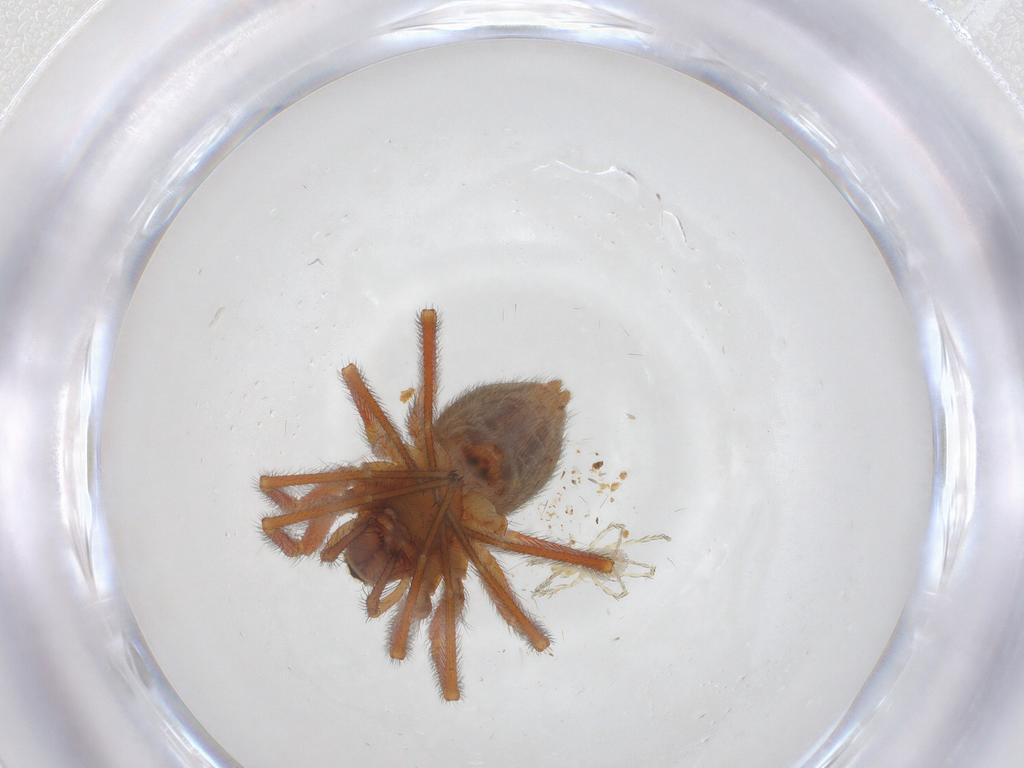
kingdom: Animalia
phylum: Arthropoda
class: Arachnida
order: Araneae
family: Linyphiidae
